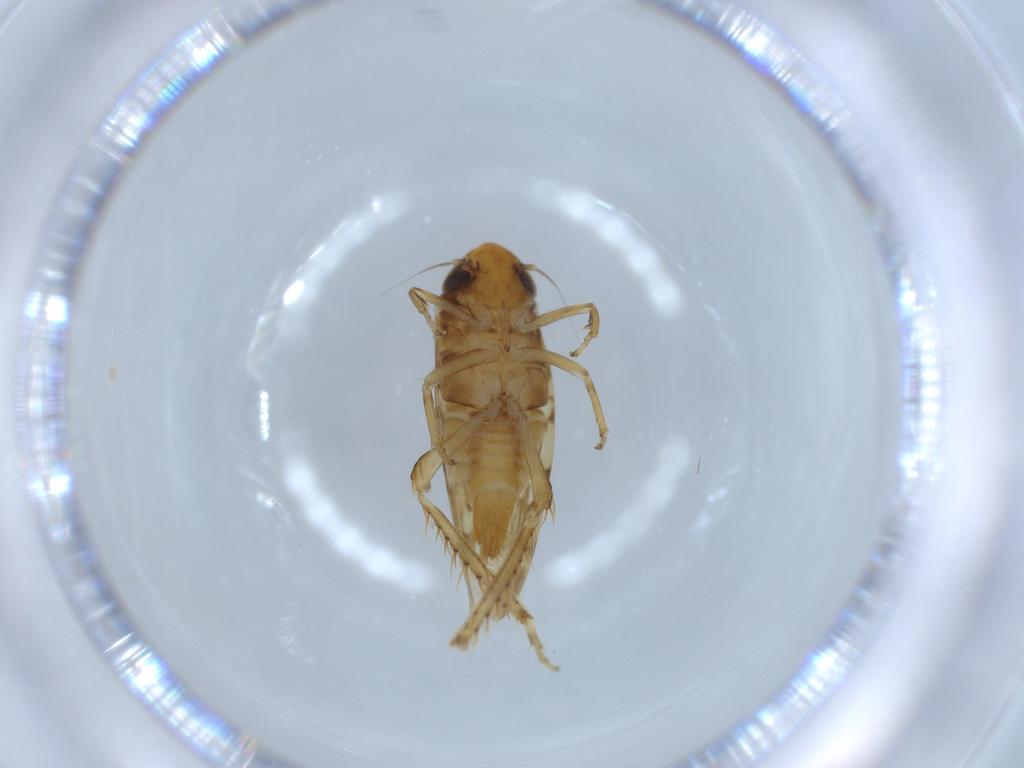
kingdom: Animalia
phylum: Arthropoda
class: Insecta
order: Hemiptera
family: Cicadellidae
